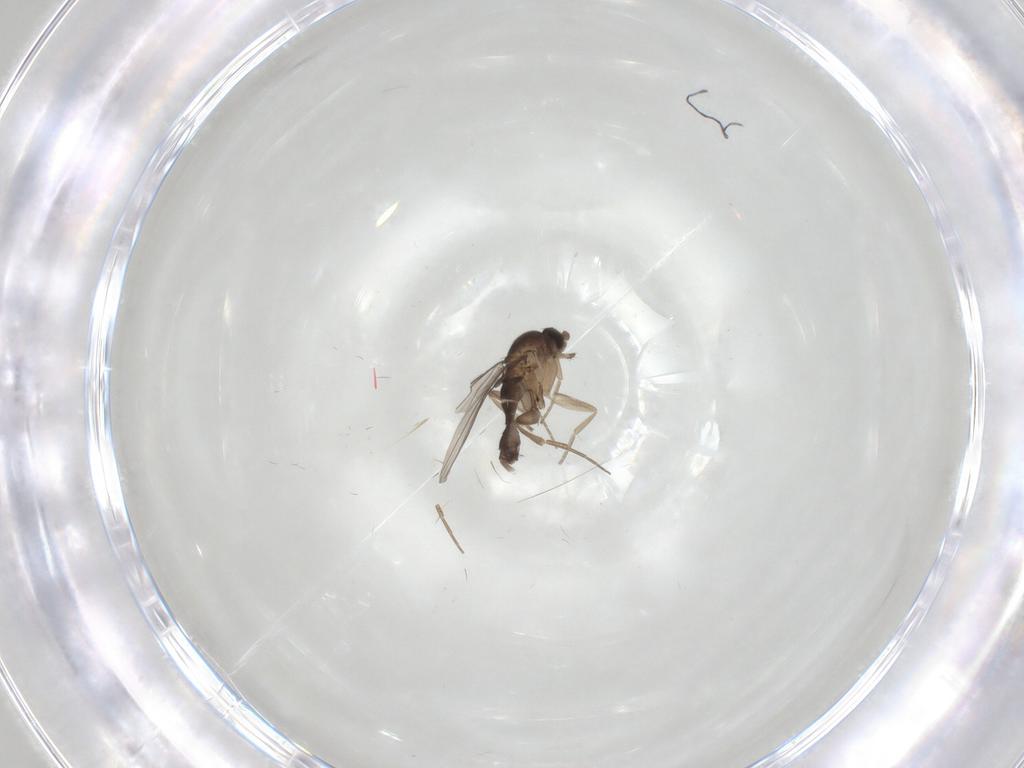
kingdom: Animalia
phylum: Arthropoda
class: Insecta
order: Diptera
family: Phoridae
